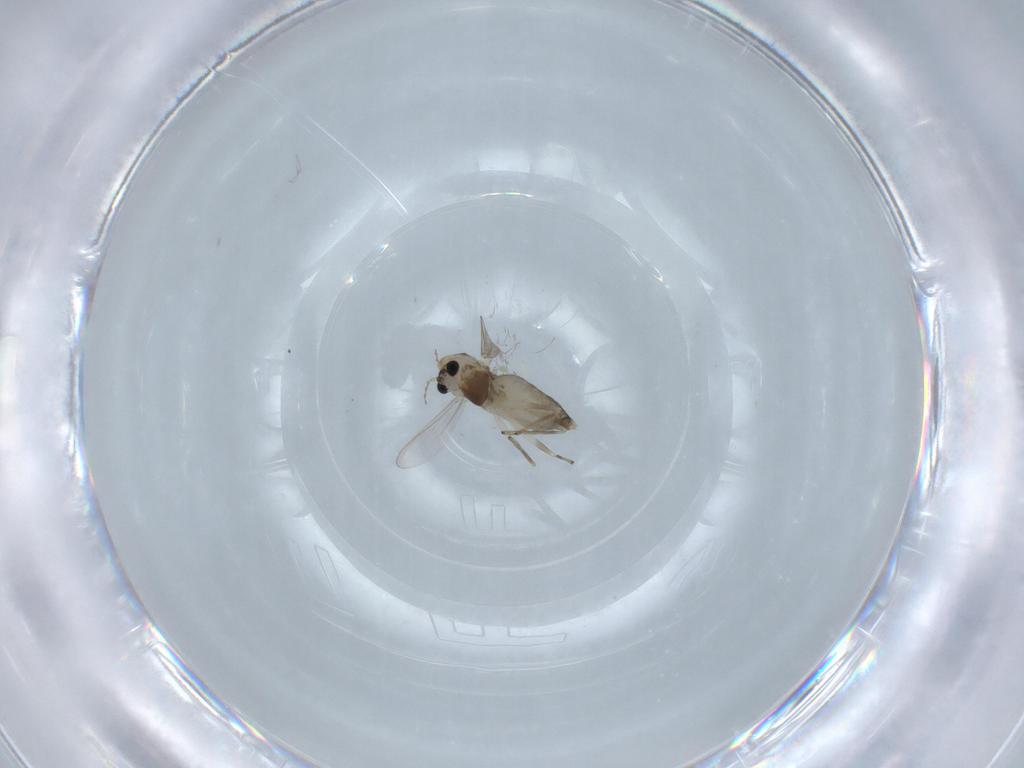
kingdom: Animalia
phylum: Arthropoda
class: Insecta
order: Diptera
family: Chironomidae
